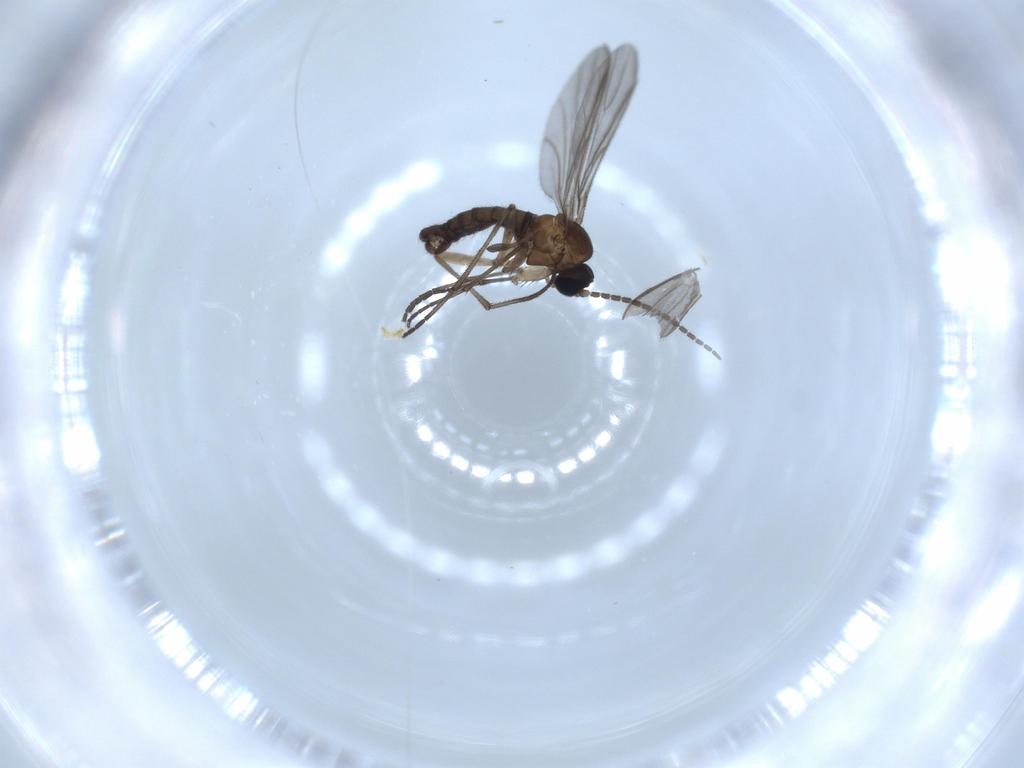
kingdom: Animalia
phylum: Arthropoda
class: Insecta
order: Diptera
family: Sciaridae
